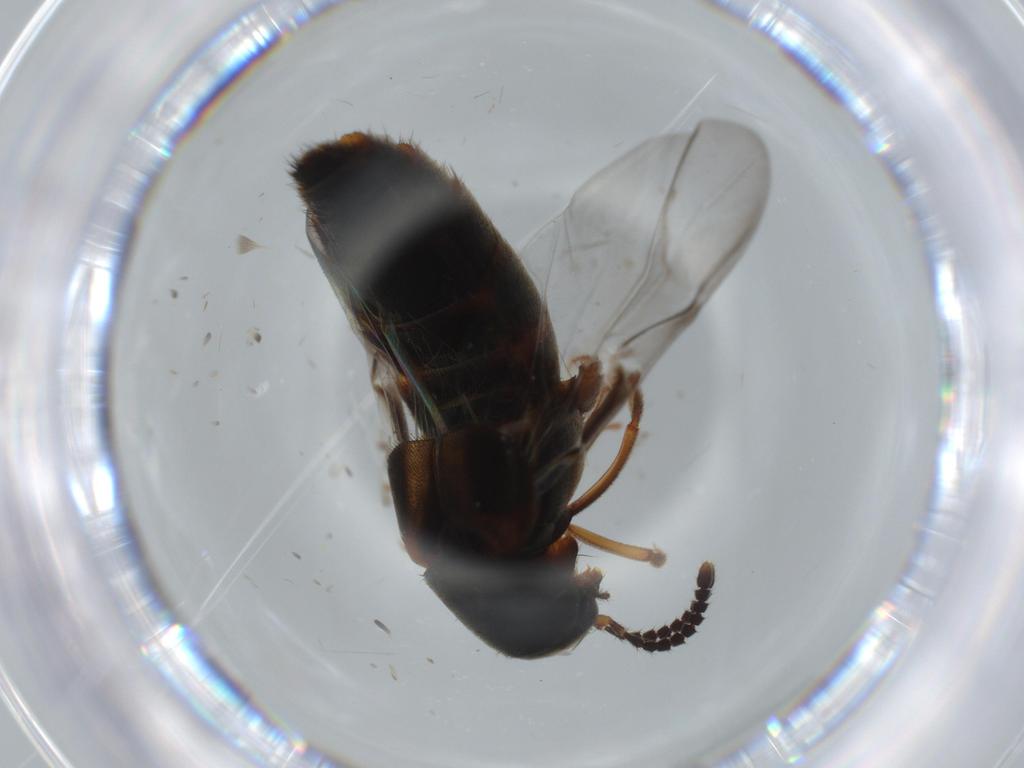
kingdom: Animalia
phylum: Arthropoda
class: Insecta
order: Coleoptera
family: Staphylinidae
